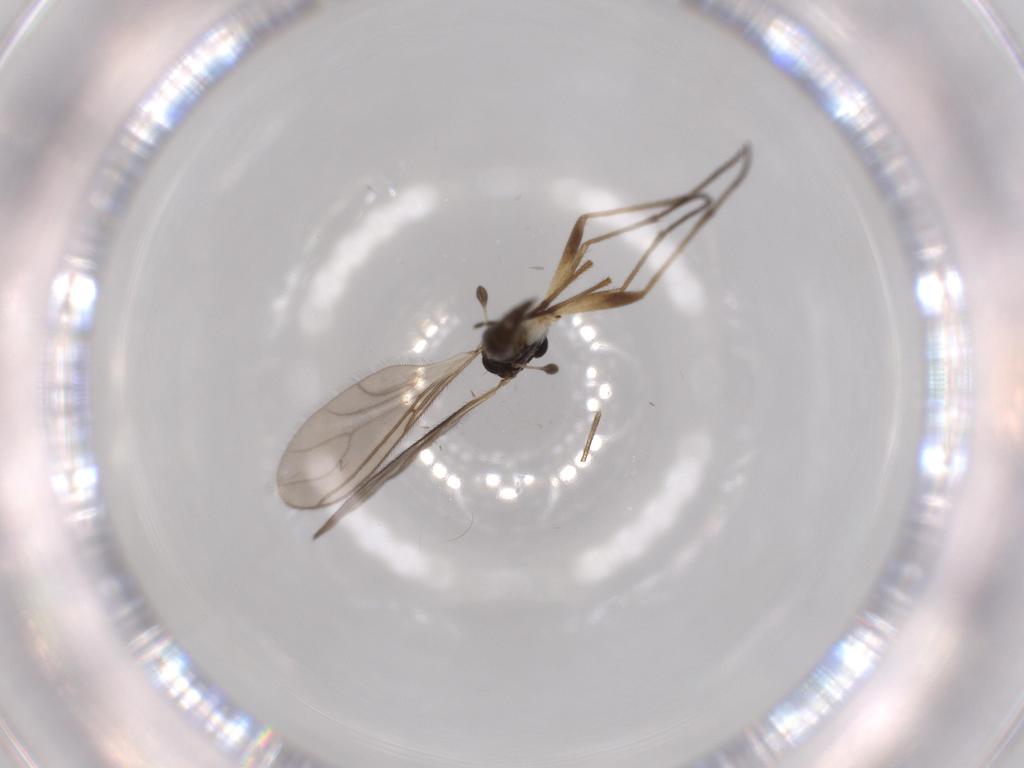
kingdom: Animalia
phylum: Arthropoda
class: Insecta
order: Diptera
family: Sciaridae
